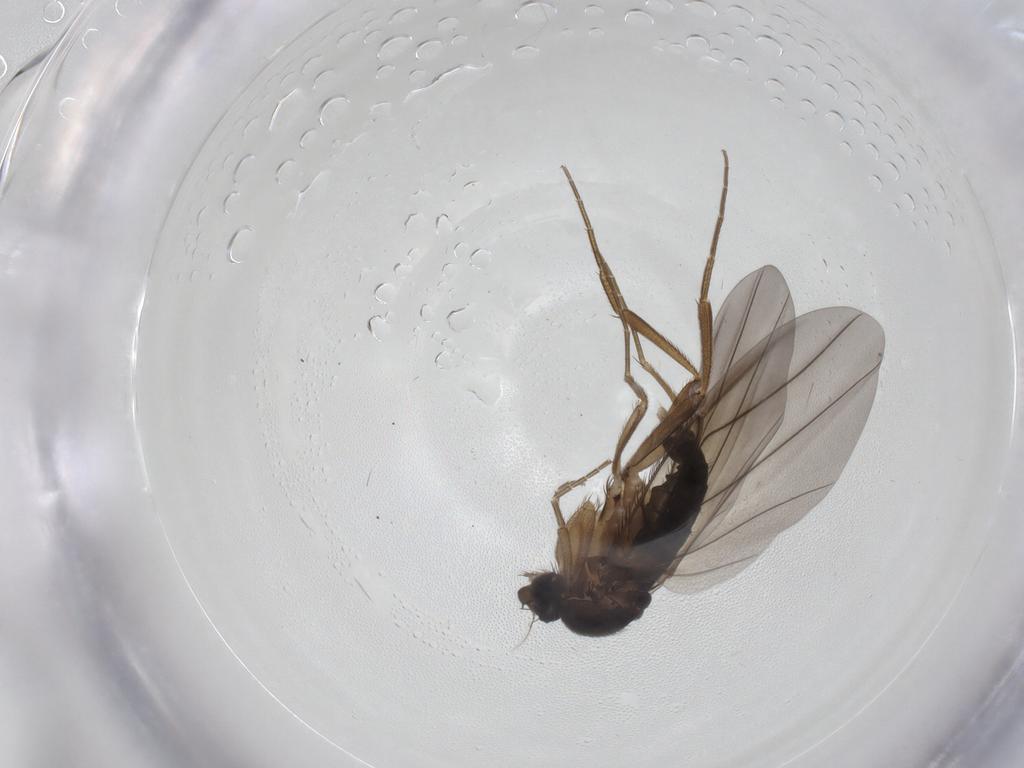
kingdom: Animalia
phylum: Arthropoda
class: Insecta
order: Diptera
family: Phoridae
